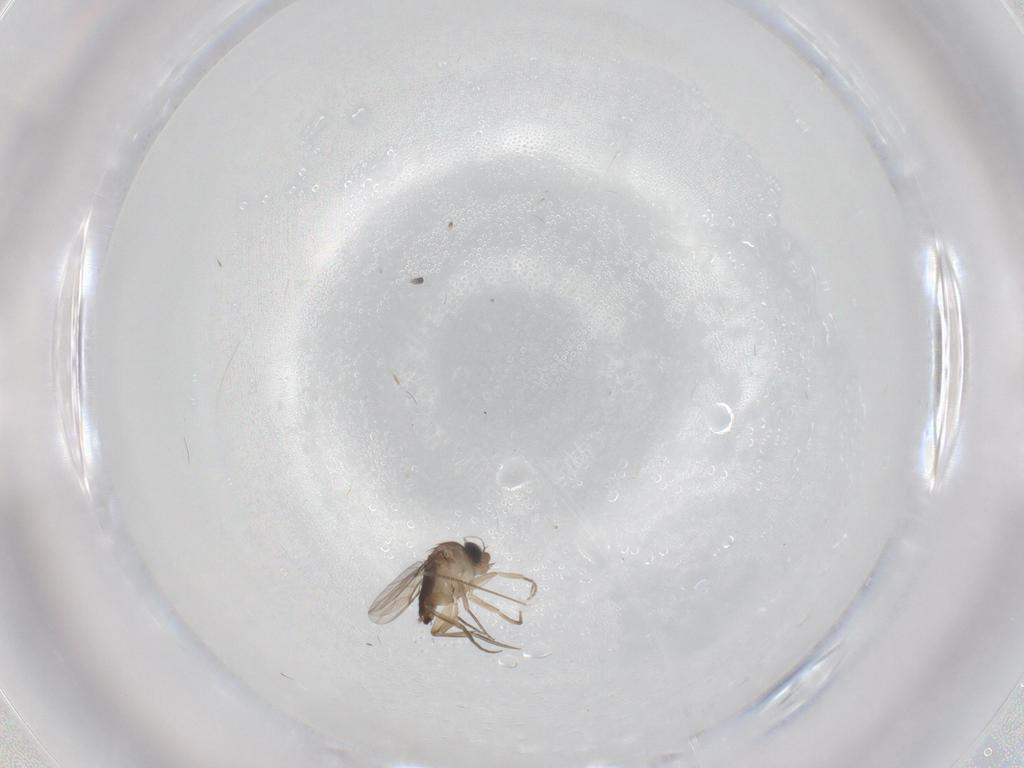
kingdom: Animalia
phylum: Arthropoda
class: Insecta
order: Diptera
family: Phoridae
